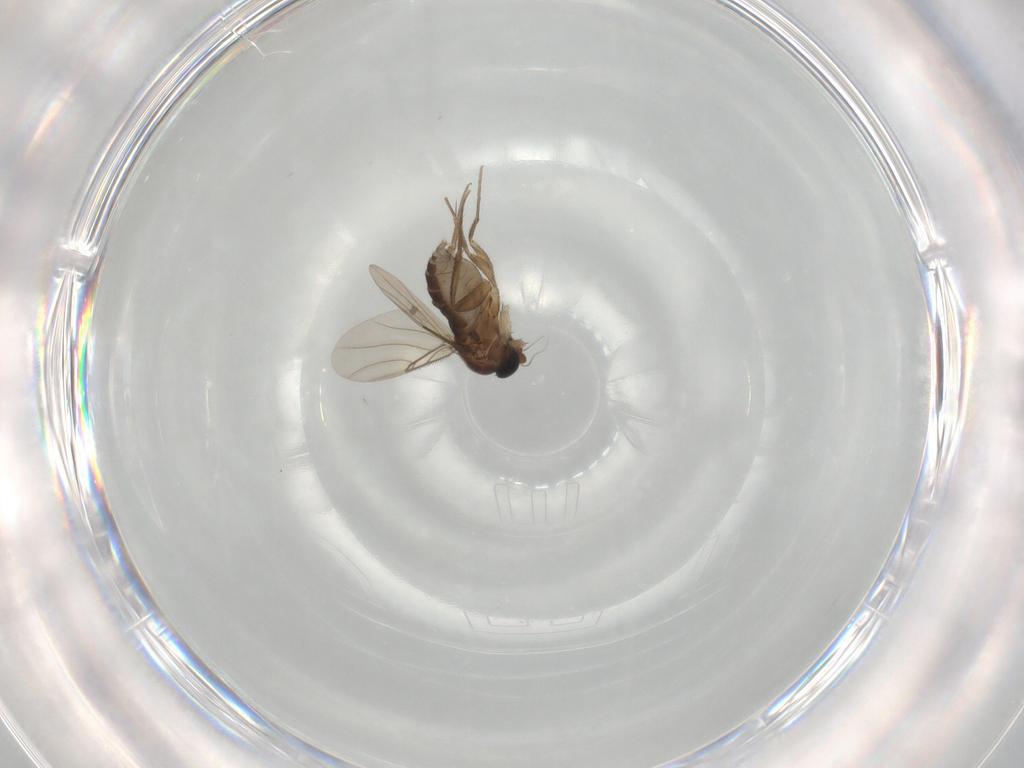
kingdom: Animalia
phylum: Arthropoda
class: Insecta
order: Diptera
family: Phoridae
